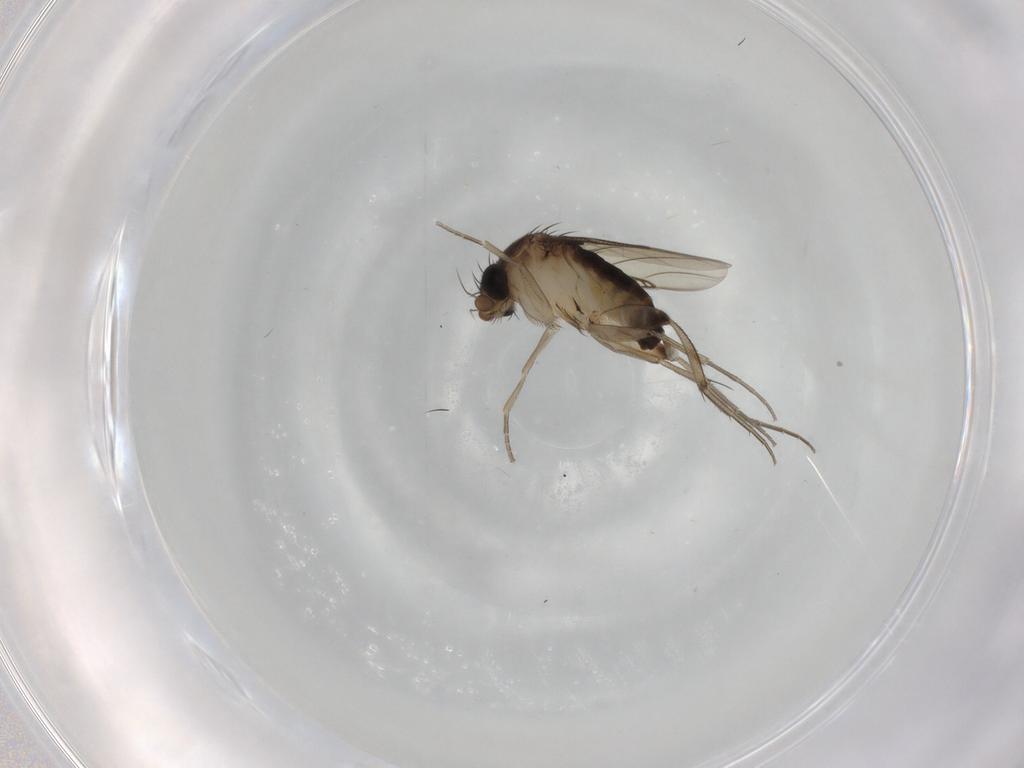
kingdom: Animalia
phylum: Arthropoda
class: Insecta
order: Diptera
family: Phoridae
